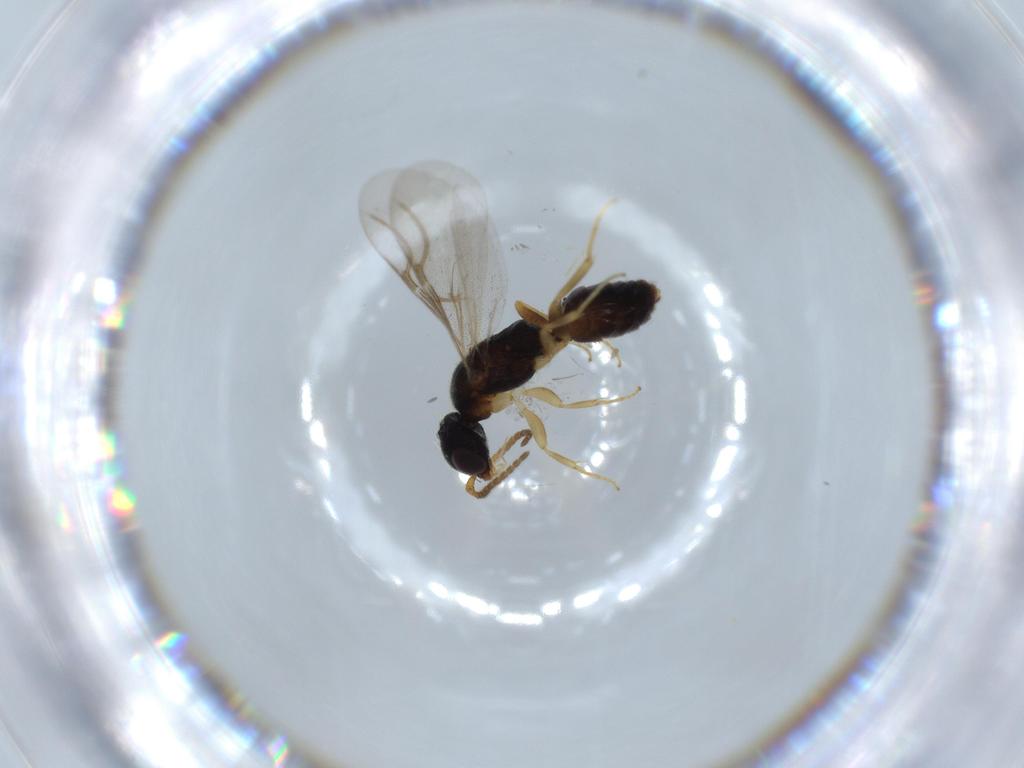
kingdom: Animalia
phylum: Arthropoda
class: Insecta
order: Hymenoptera
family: Bethylidae
